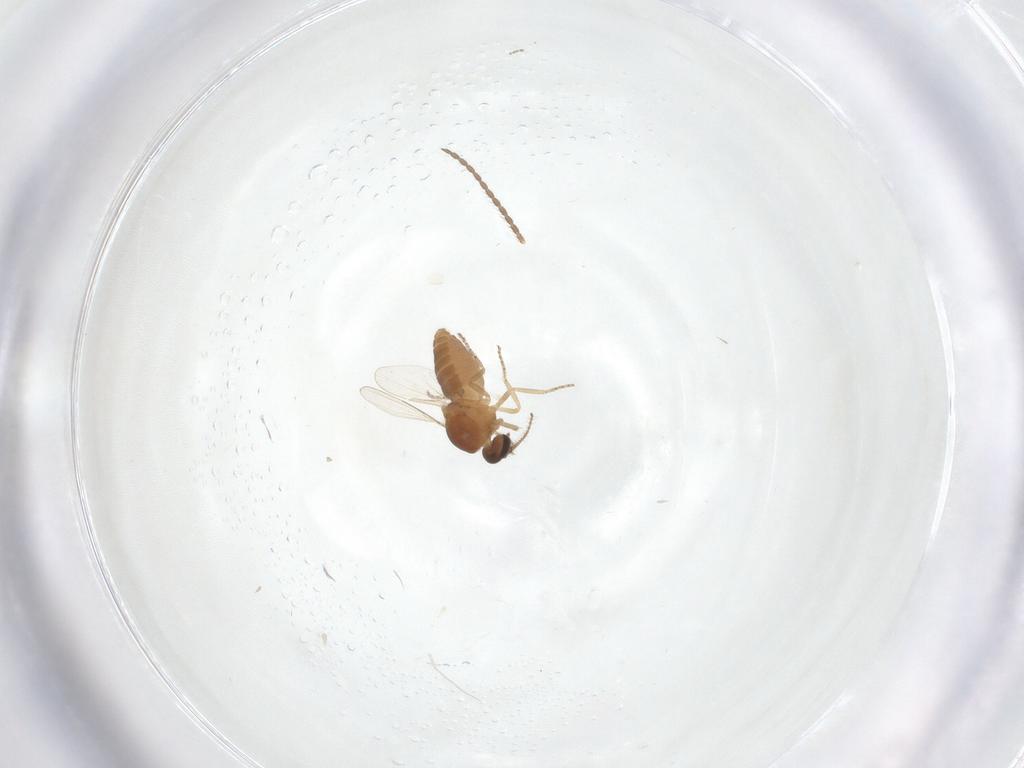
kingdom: Animalia
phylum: Arthropoda
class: Insecta
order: Diptera
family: Ceratopogonidae
